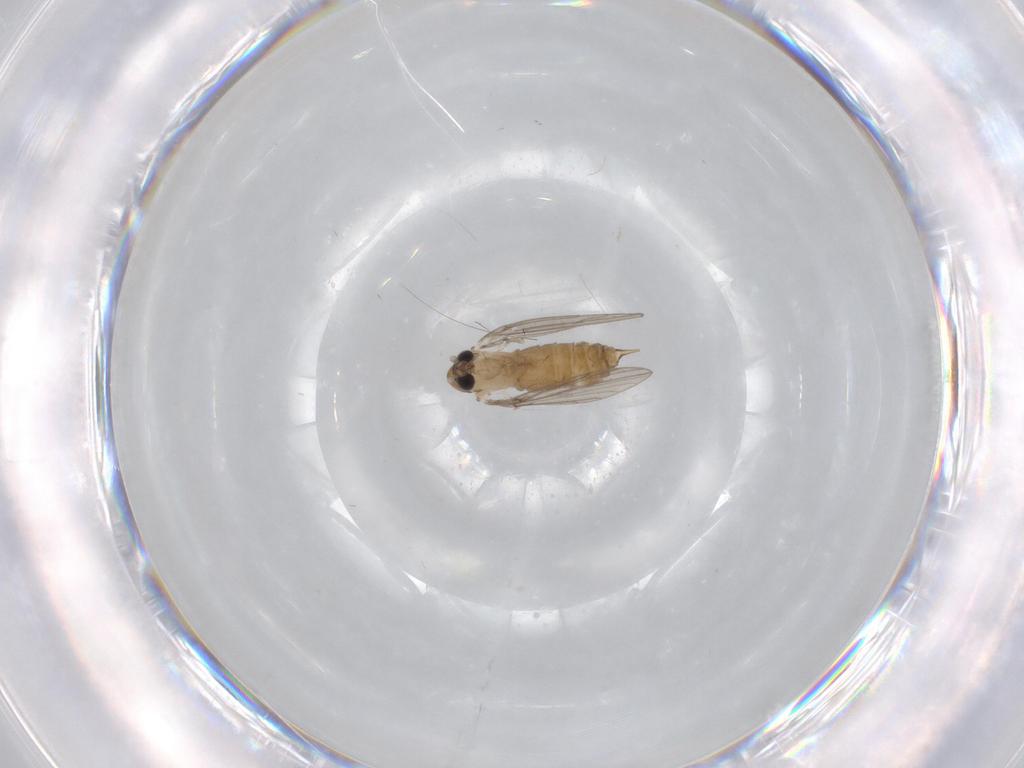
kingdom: Animalia
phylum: Arthropoda
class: Insecta
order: Diptera
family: Psychodidae
